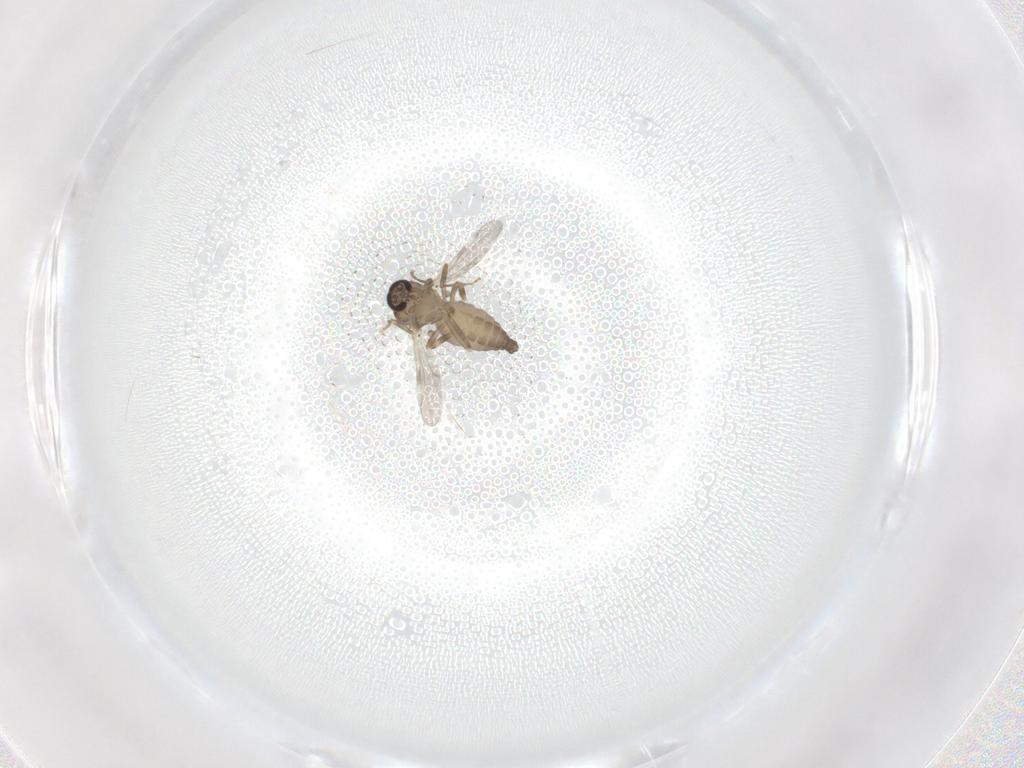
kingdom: Animalia
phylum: Arthropoda
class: Insecta
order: Diptera
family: Ceratopogonidae
